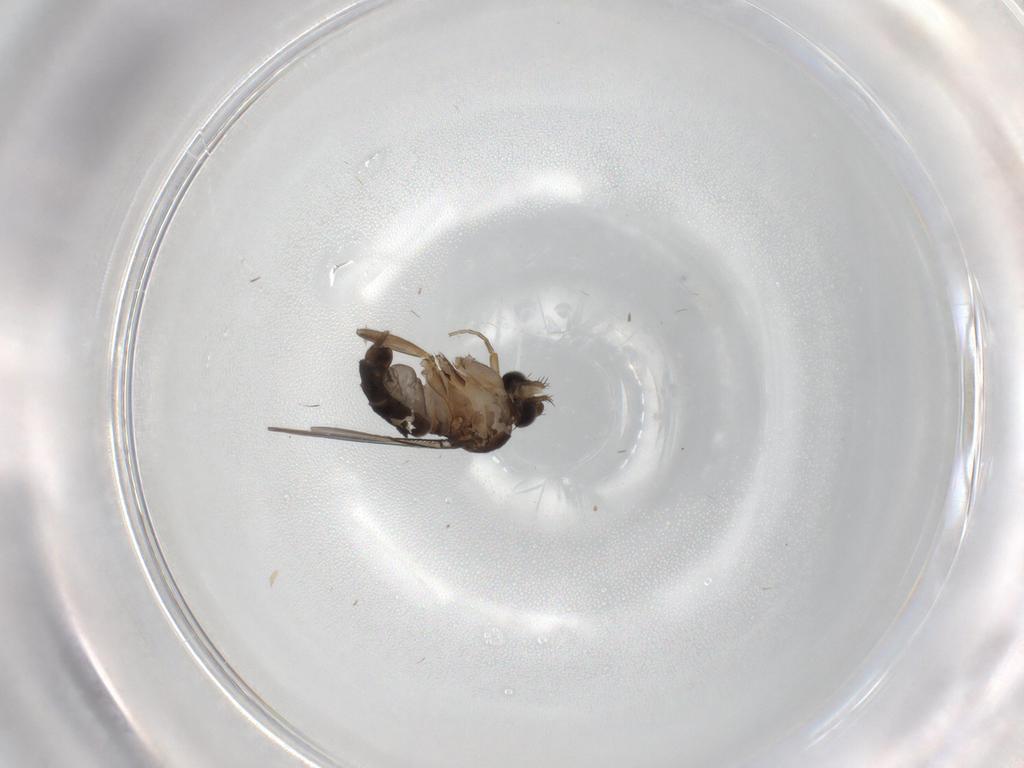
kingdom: Animalia
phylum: Arthropoda
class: Insecta
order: Diptera
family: Phoridae
